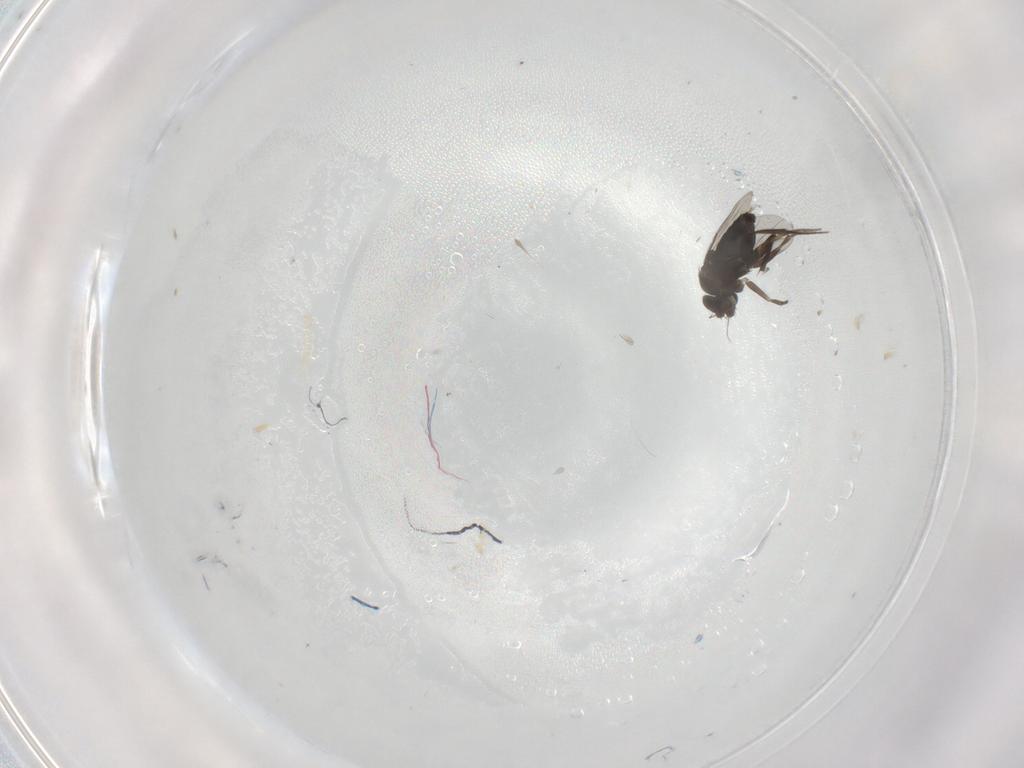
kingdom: Animalia
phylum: Arthropoda
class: Insecta
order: Diptera
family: Phoridae
